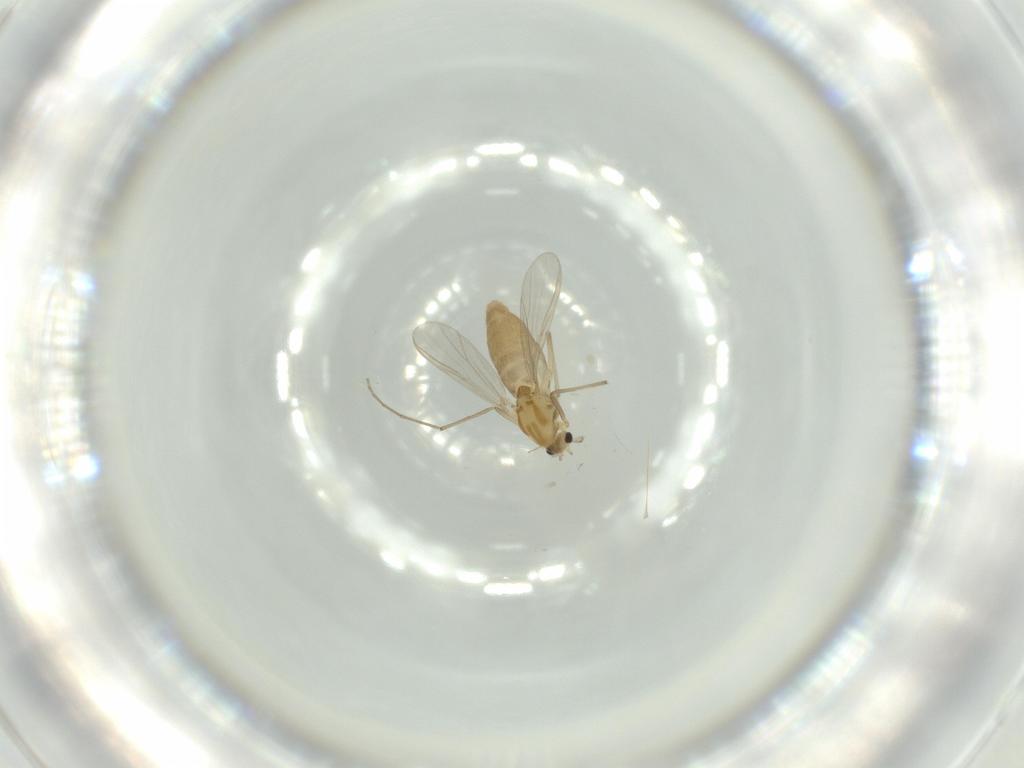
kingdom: Animalia
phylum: Arthropoda
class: Insecta
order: Diptera
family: Chironomidae
